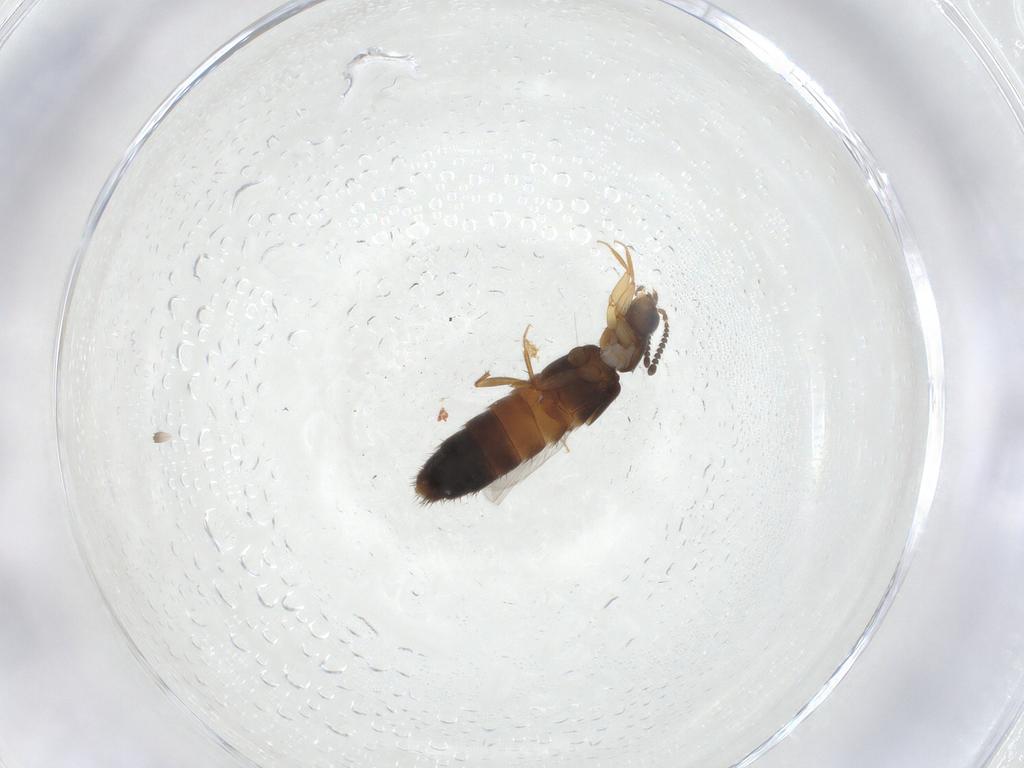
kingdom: Animalia
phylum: Arthropoda
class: Insecta
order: Coleoptera
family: Staphylinidae
